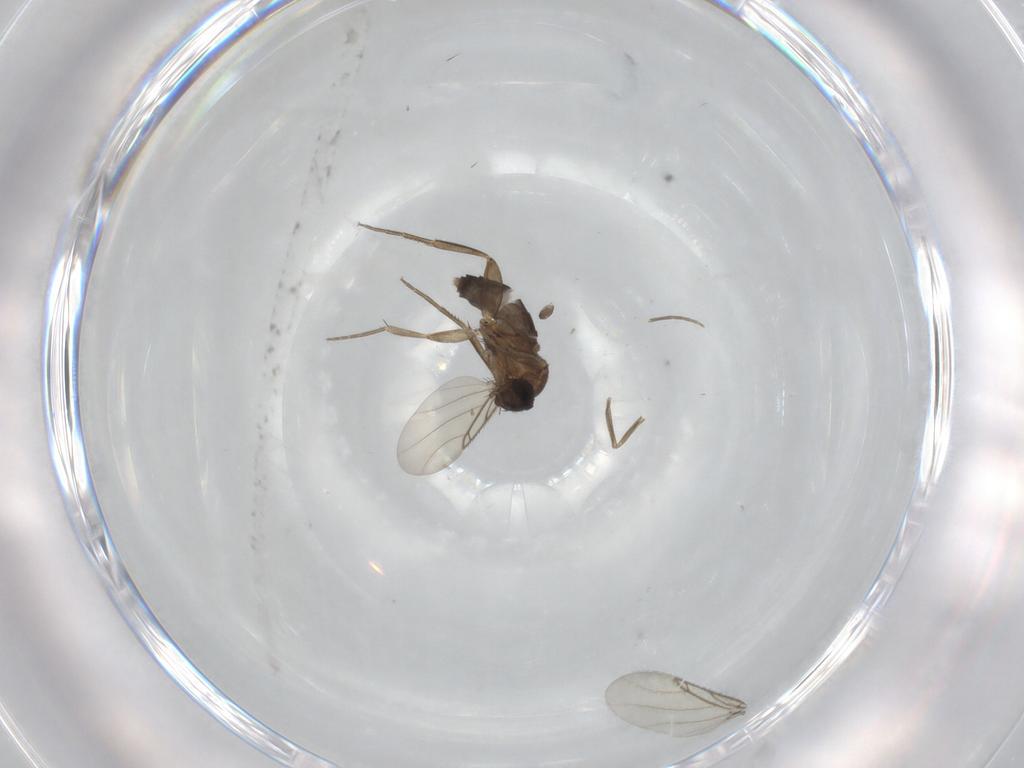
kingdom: Animalia
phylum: Arthropoda
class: Insecta
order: Diptera
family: Phoridae
